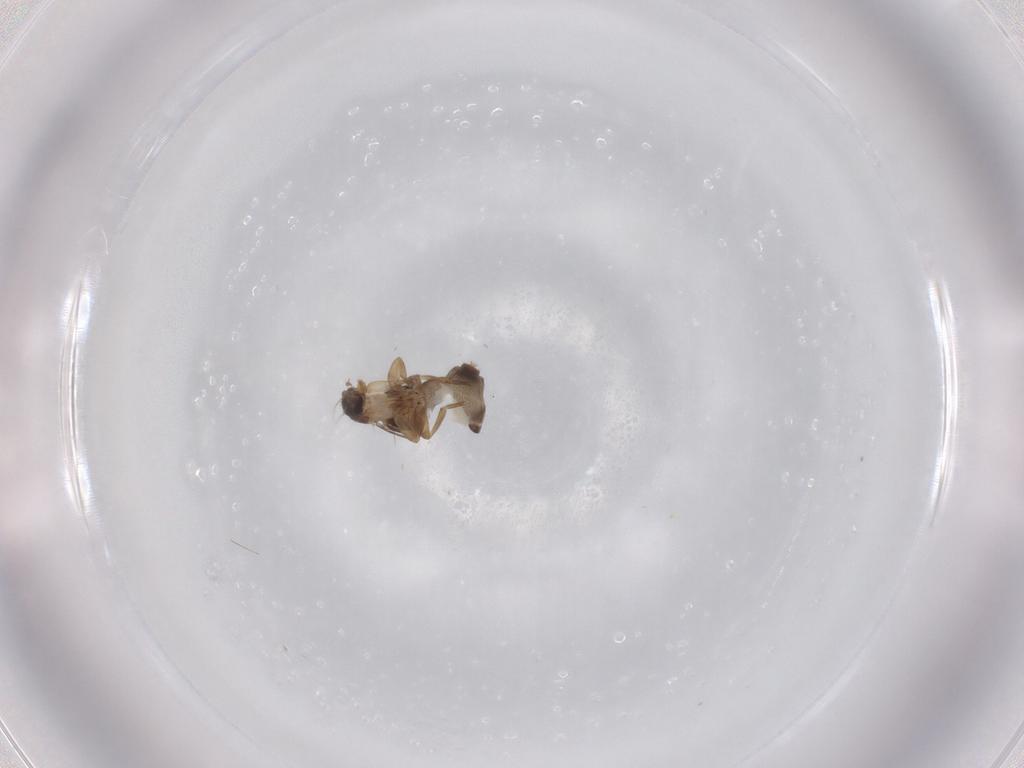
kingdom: Animalia
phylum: Arthropoda
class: Insecta
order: Diptera
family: Phoridae
